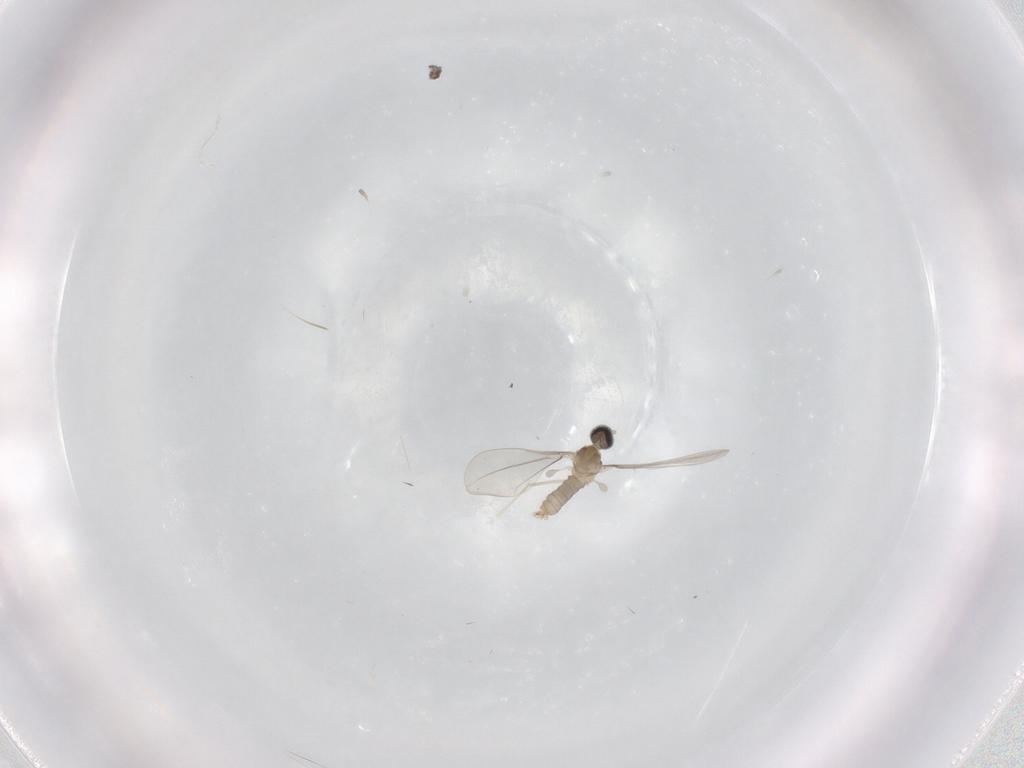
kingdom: Animalia
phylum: Arthropoda
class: Insecta
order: Diptera
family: Cecidomyiidae
